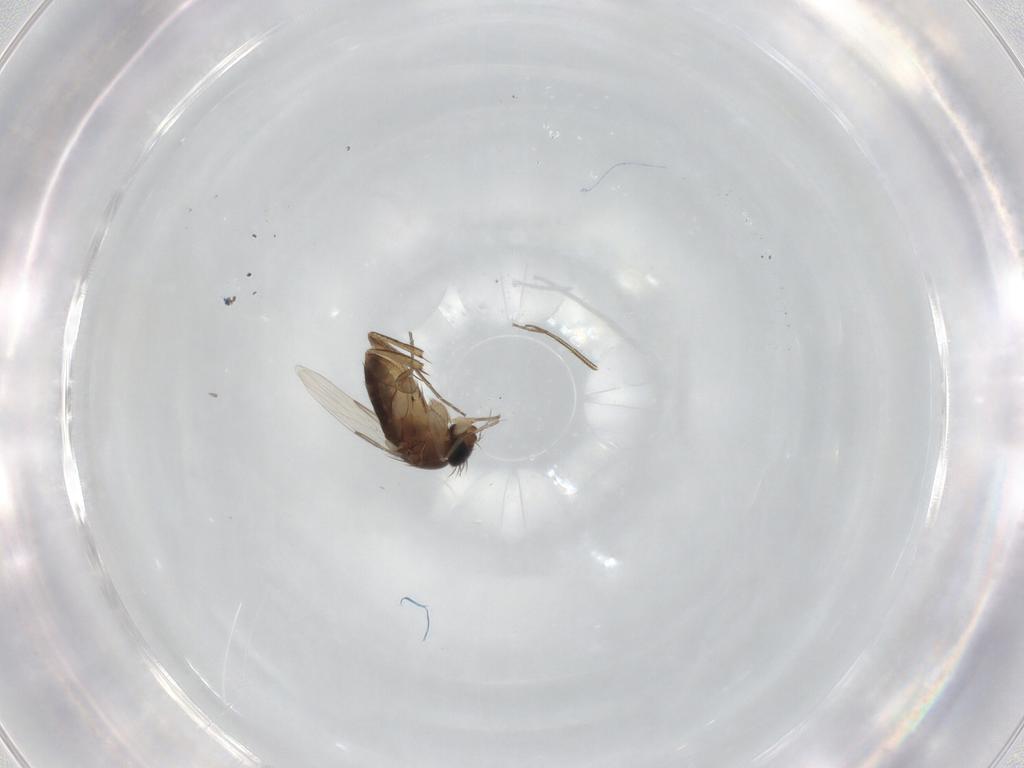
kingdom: Animalia
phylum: Arthropoda
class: Insecta
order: Diptera
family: Phoridae
